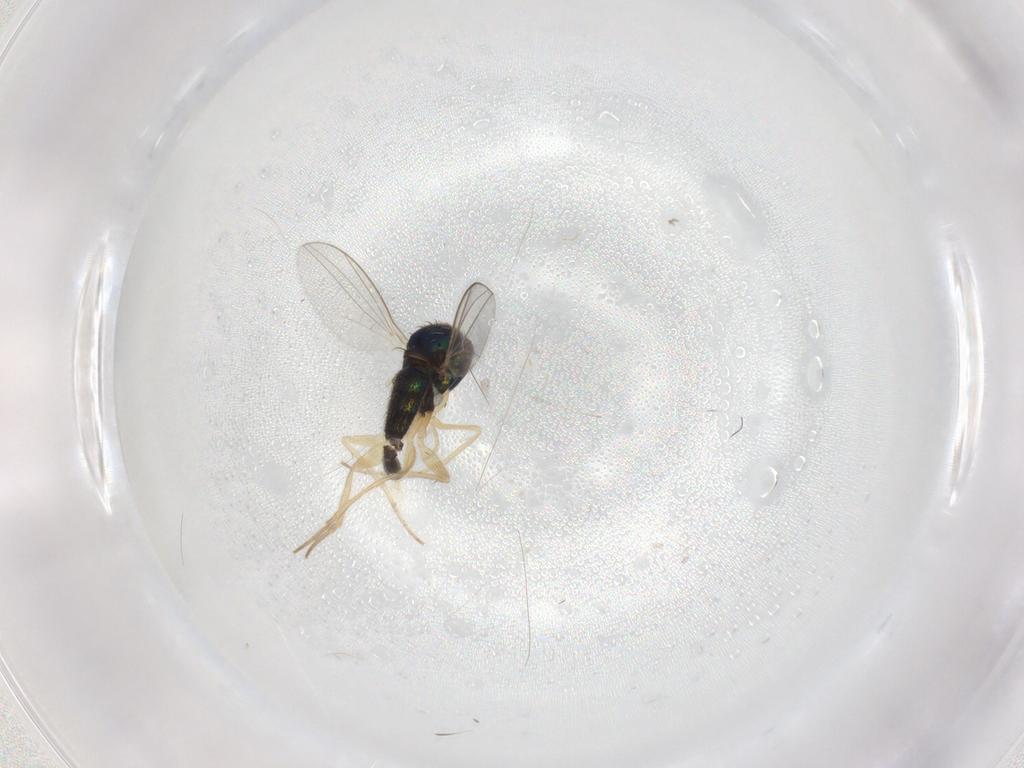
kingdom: Animalia
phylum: Arthropoda
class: Insecta
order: Diptera
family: Dolichopodidae
